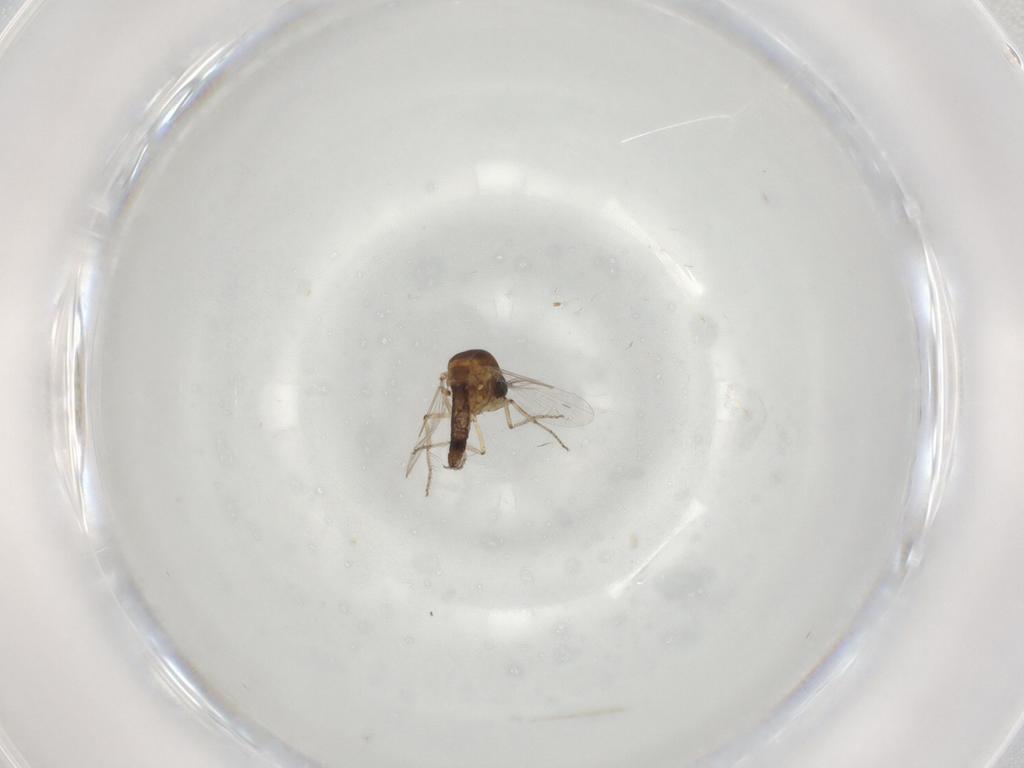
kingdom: Animalia
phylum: Arthropoda
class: Insecta
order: Diptera
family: Ceratopogonidae
